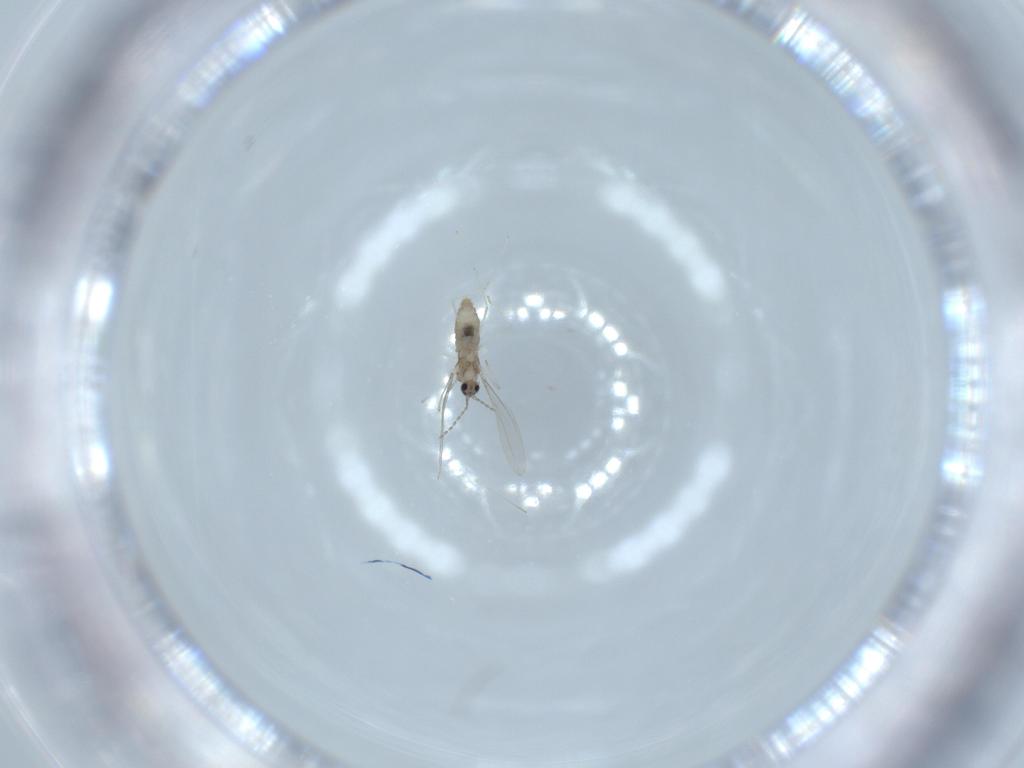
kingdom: Animalia
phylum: Arthropoda
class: Insecta
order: Diptera
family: Cecidomyiidae
